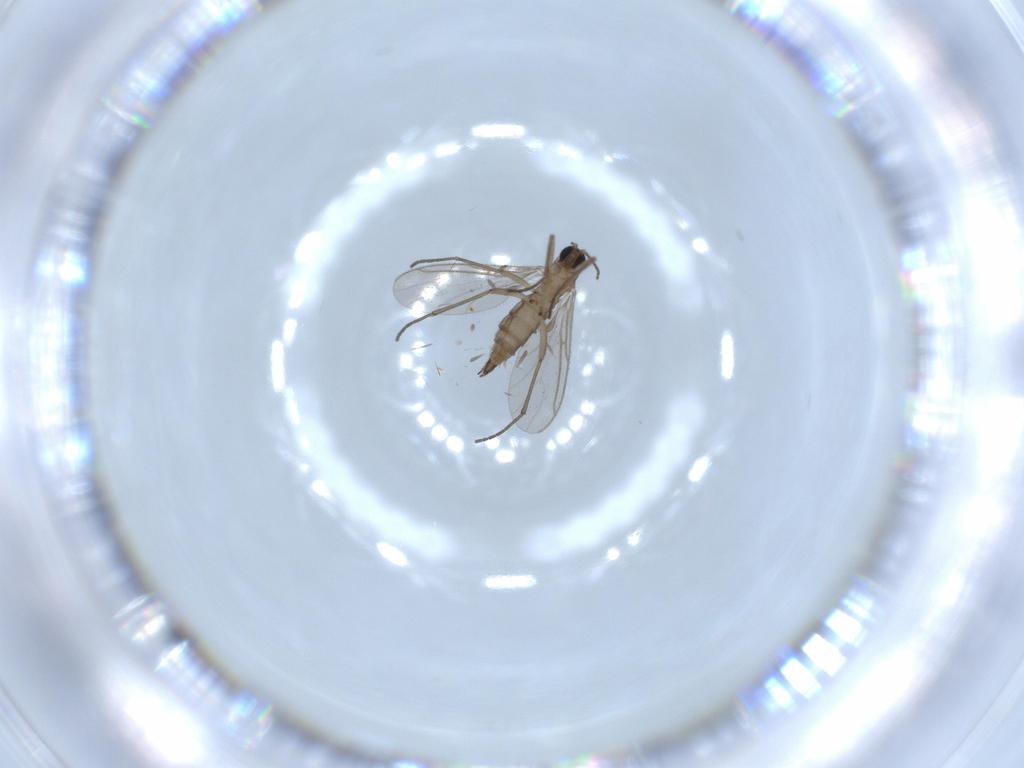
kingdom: Animalia
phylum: Arthropoda
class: Insecta
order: Diptera
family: Sciaridae
